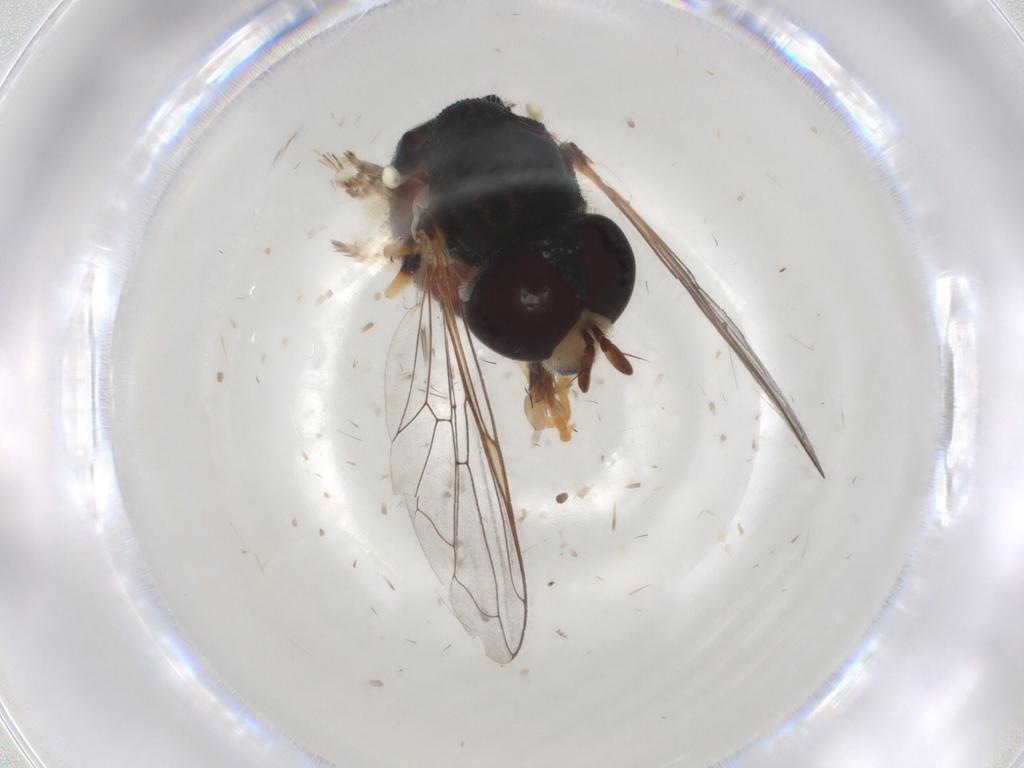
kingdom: Animalia
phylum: Arthropoda
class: Insecta
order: Diptera
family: Syrphidae
